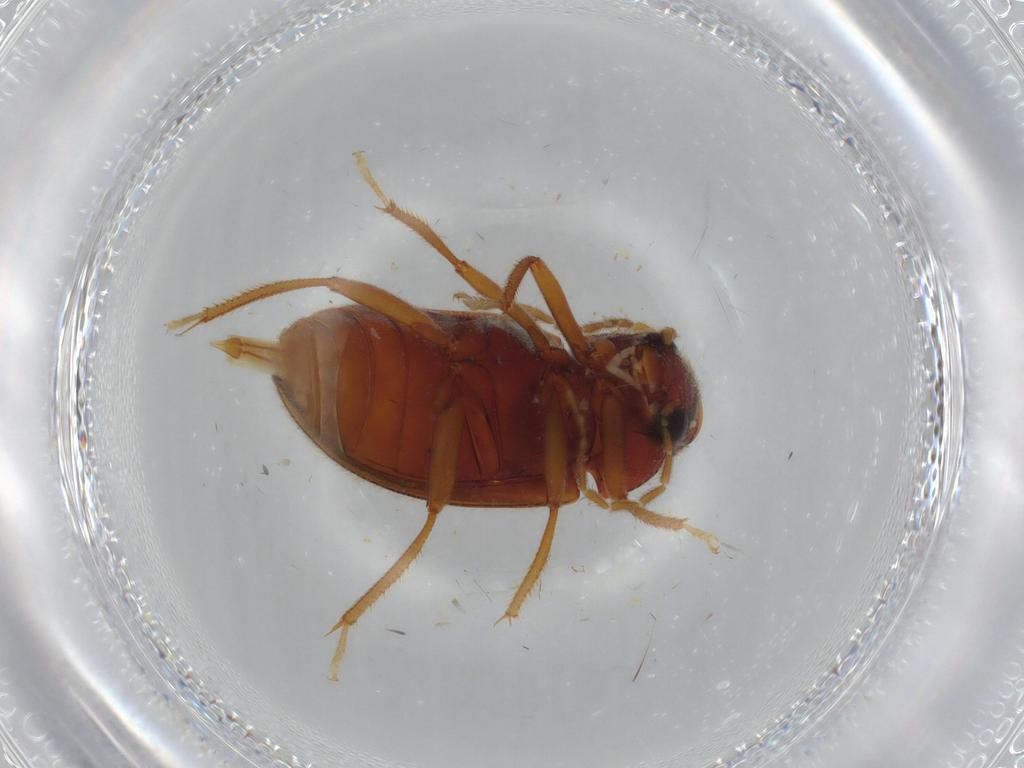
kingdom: Animalia
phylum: Arthropoda
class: Insecta
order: Coleoptera
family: Ptilodactylidae
